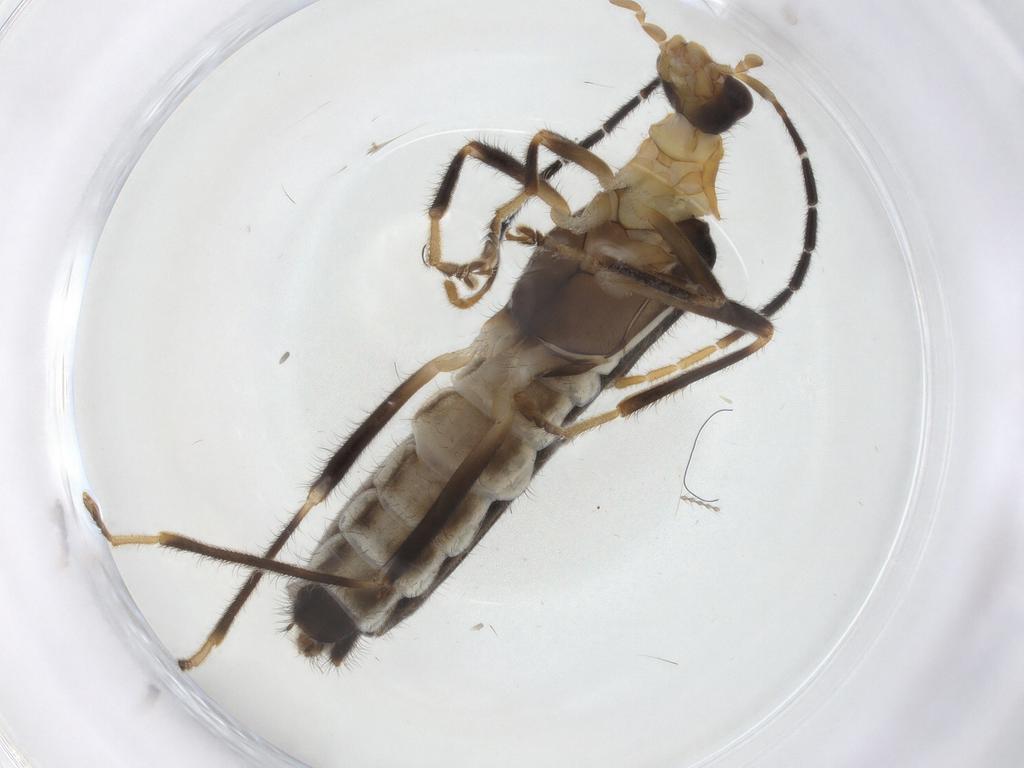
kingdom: Animalia
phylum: Arthropoda
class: Insecta
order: Coleoptera
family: Cantharidae
